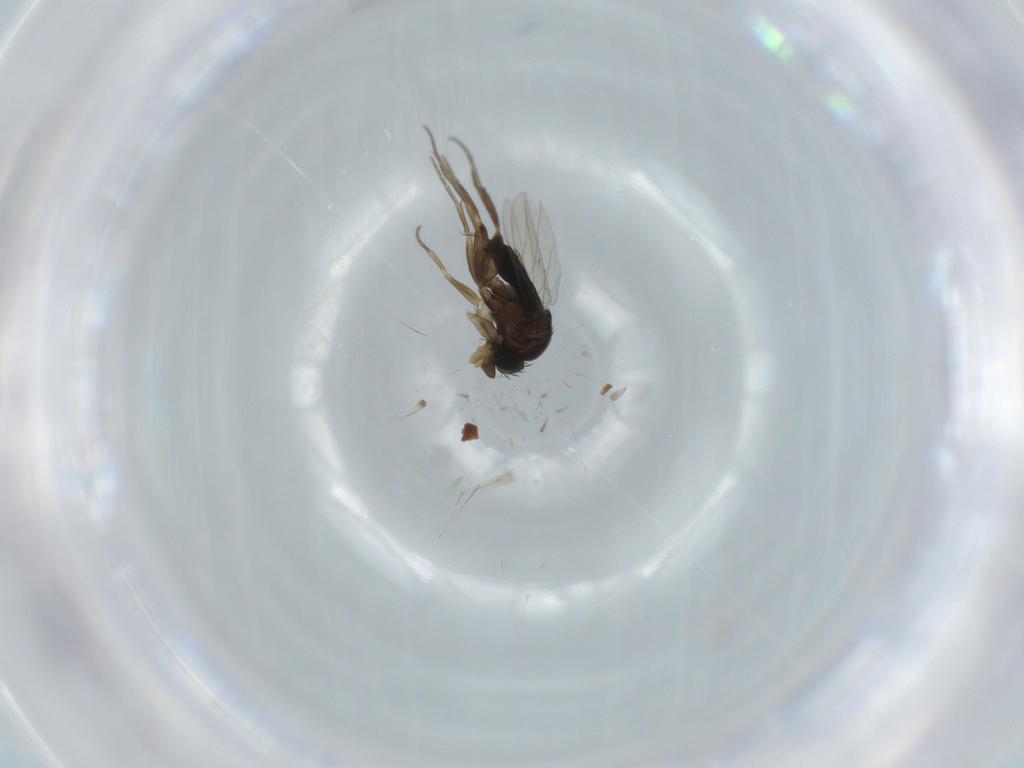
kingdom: Animalia
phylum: Arthropoda
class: Insecta
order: Diptera
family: Phoridae
